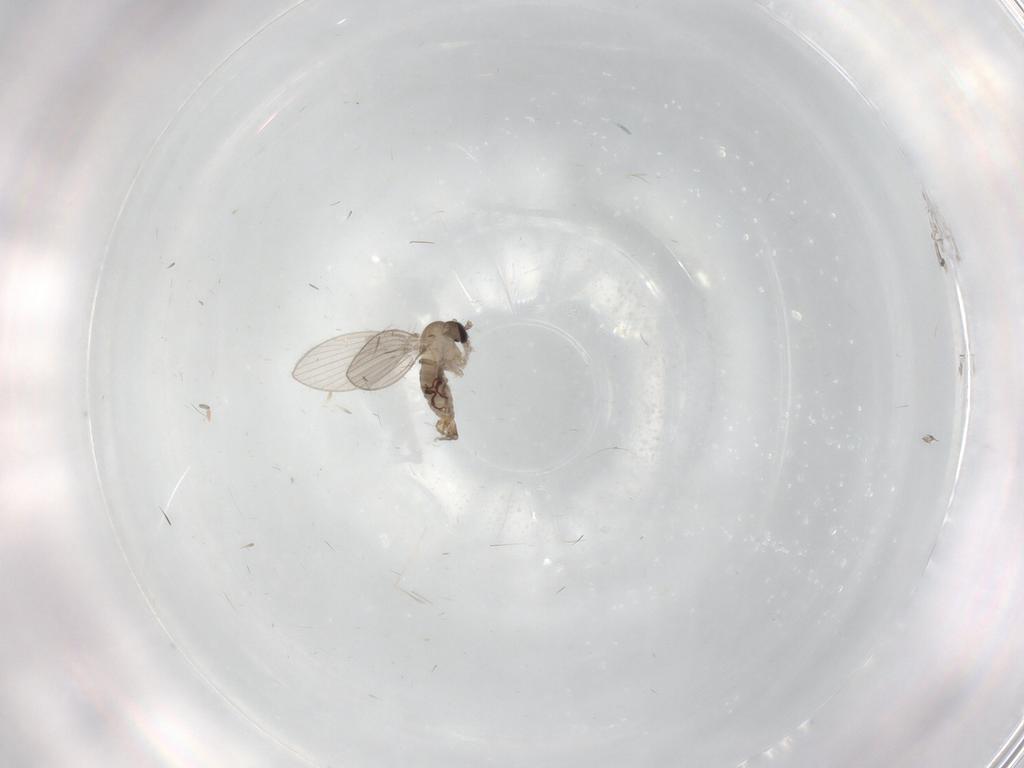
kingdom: Animalia
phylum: Arthropoda
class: Insecta
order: Diptera
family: Psychodidae
